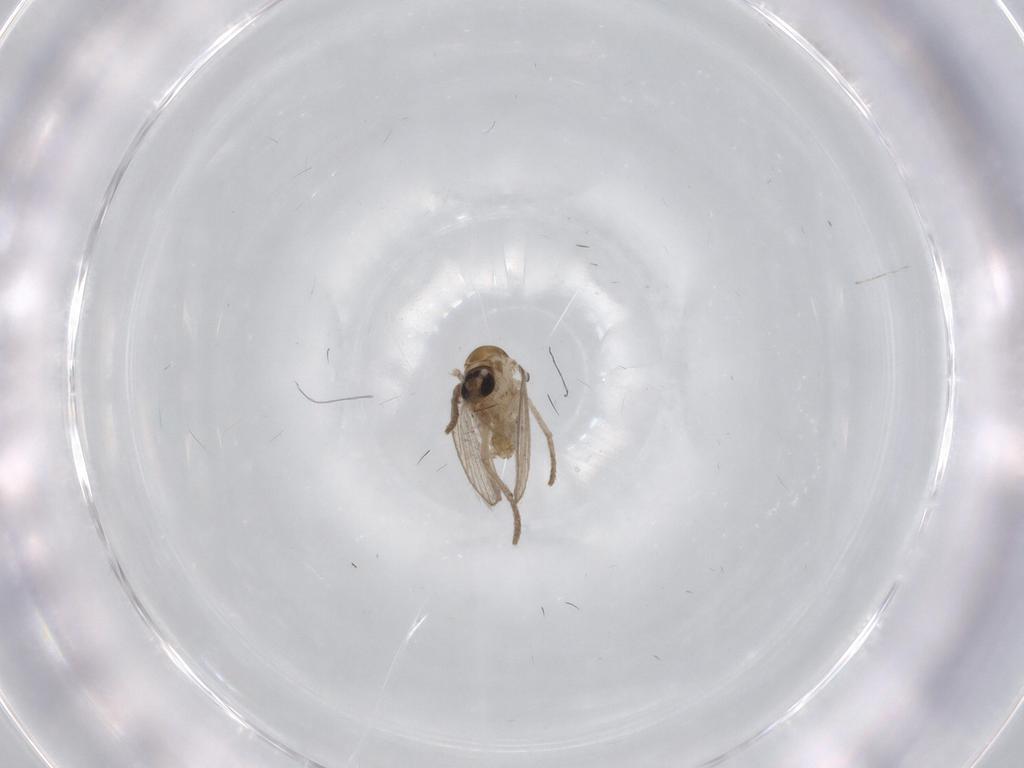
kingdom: Animalia
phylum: Arthropoda
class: Insecta
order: Diptera
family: Psychodidae
